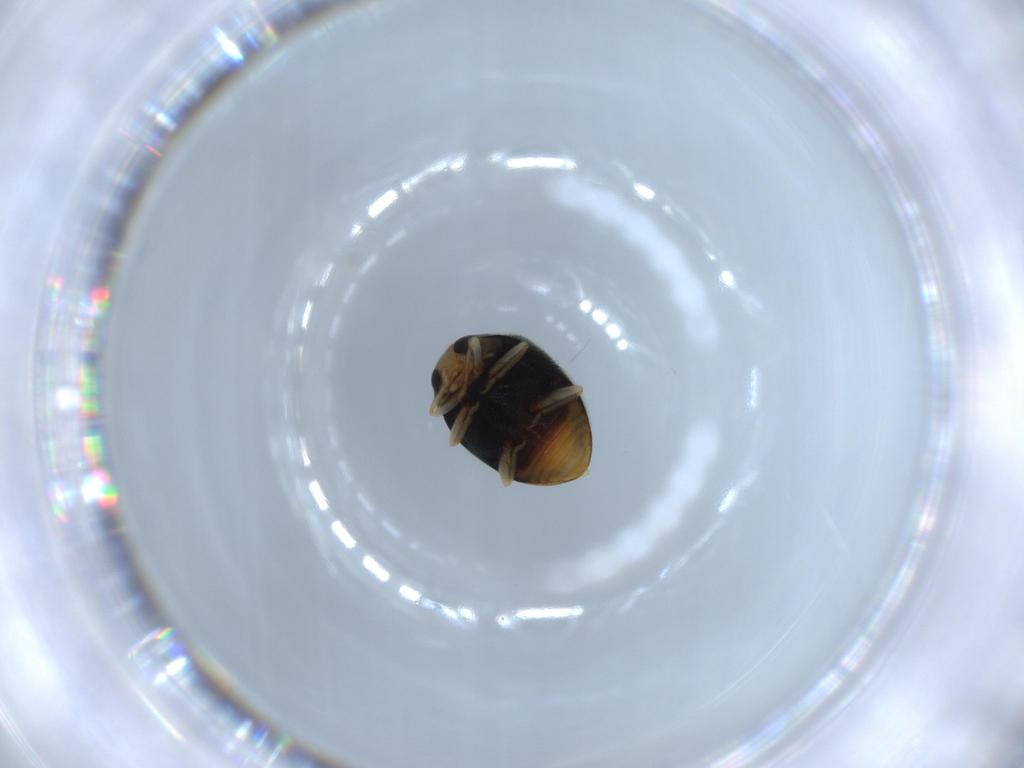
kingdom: Animalia
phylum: Arthropoda
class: Insecta
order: Coleoptera
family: Coccinellidae
